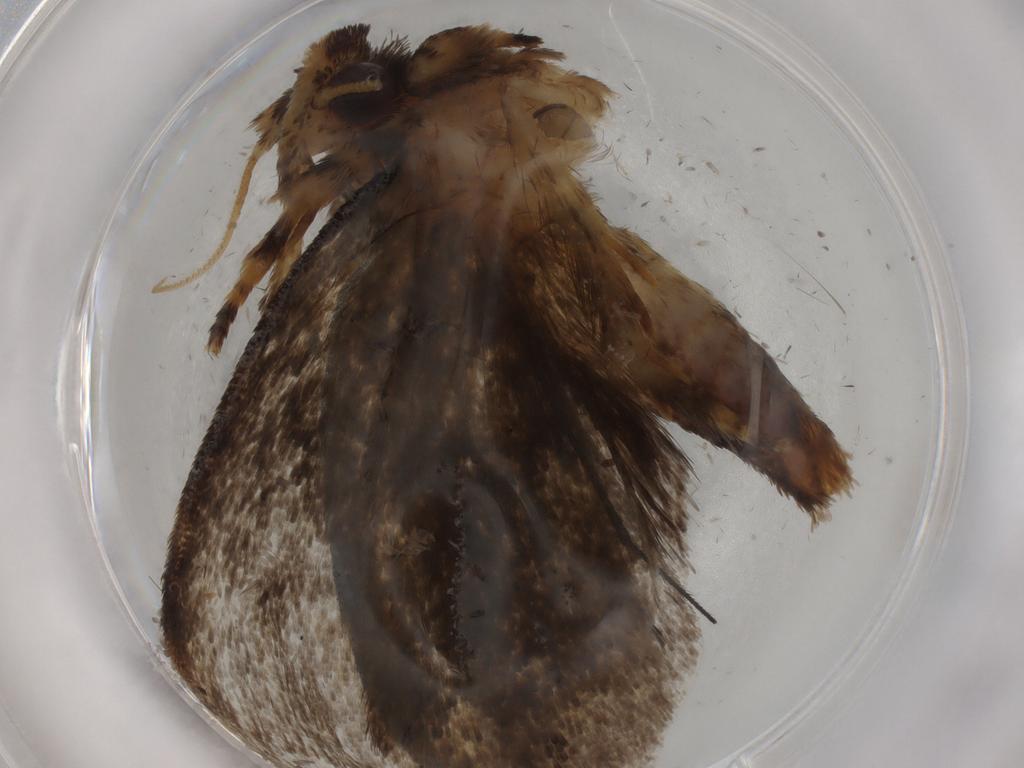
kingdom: Animalia
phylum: Arthropoda
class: Insecta
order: Lepidoptera
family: Tineidae
